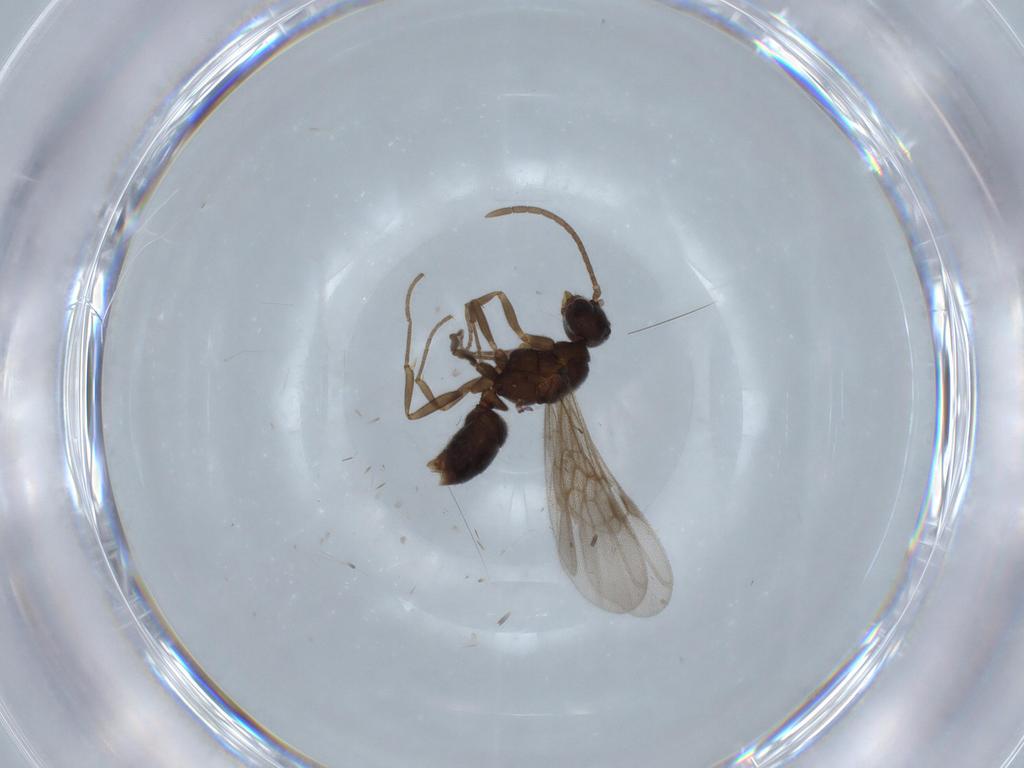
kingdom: Animalia
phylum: Arthropoda
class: Insecta
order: Hymenoptera
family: Formicidae
